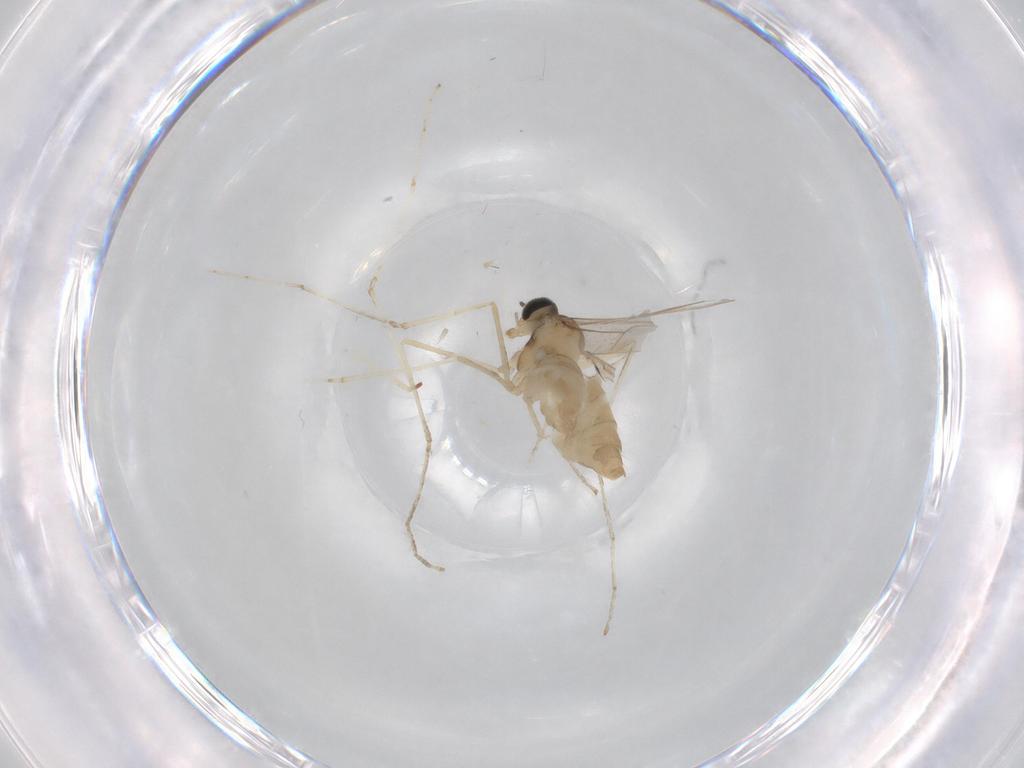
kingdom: Animalia
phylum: Arthropoda
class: Insecta
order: Diptera
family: Cecidomyiidae
